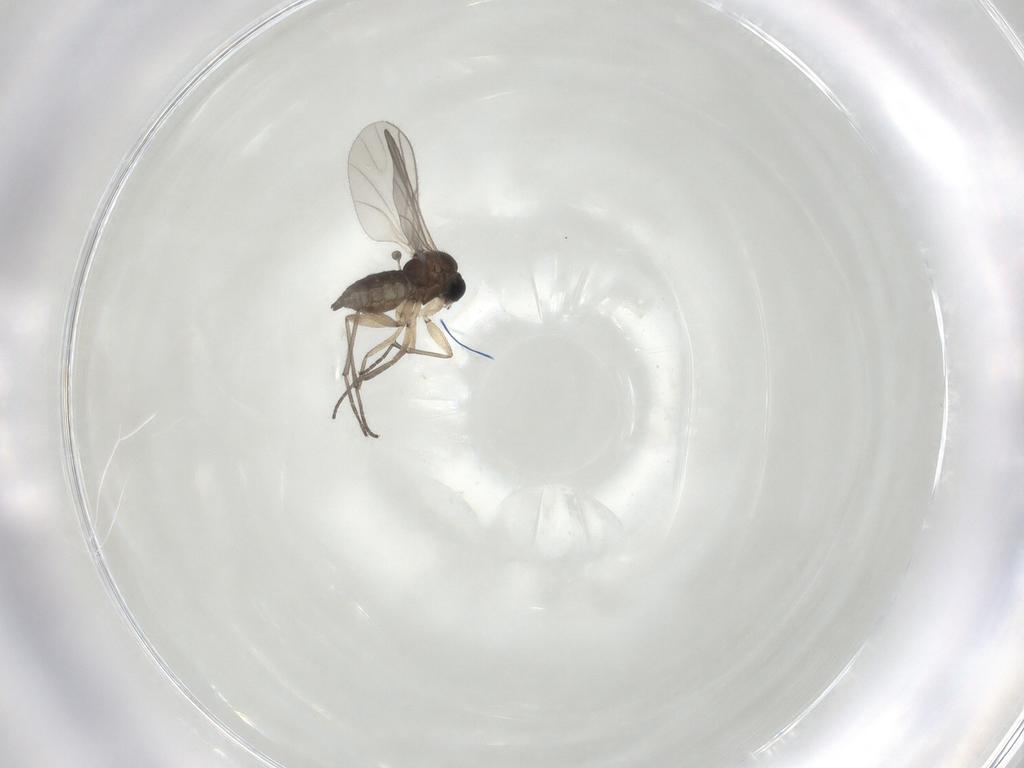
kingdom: Animalia
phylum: Arthropoda
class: Insecta
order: Diptera
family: Sciaridae
